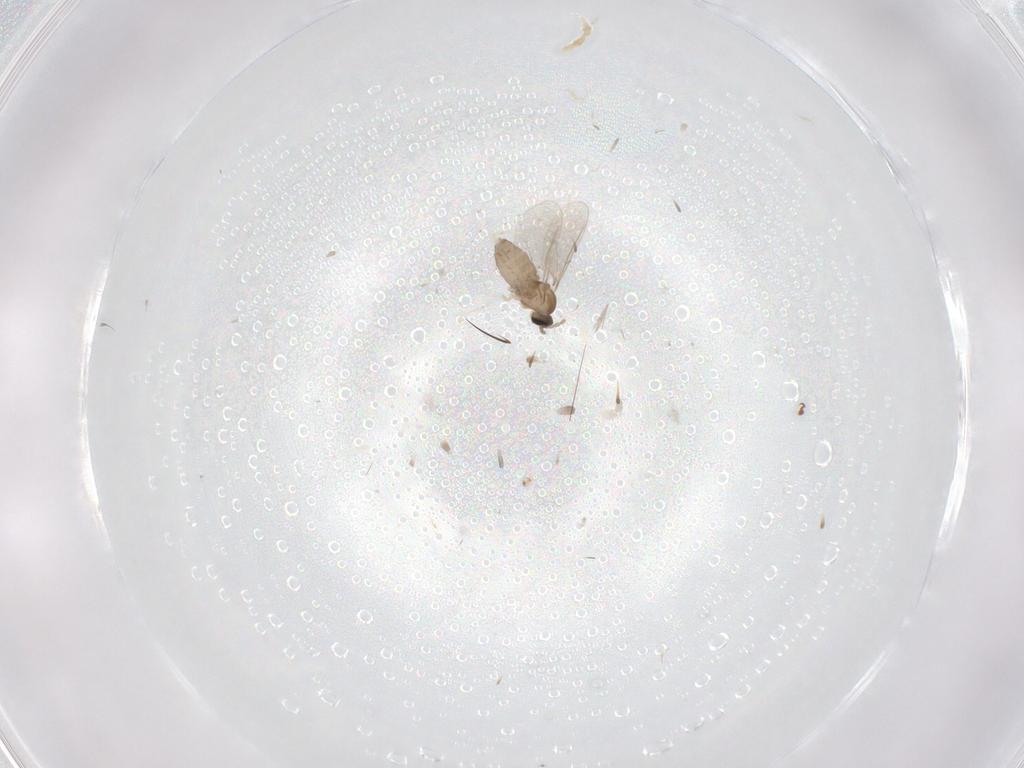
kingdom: Animalia
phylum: Arthropoda
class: Insecta
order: Diptera
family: Cecidomyiidae
